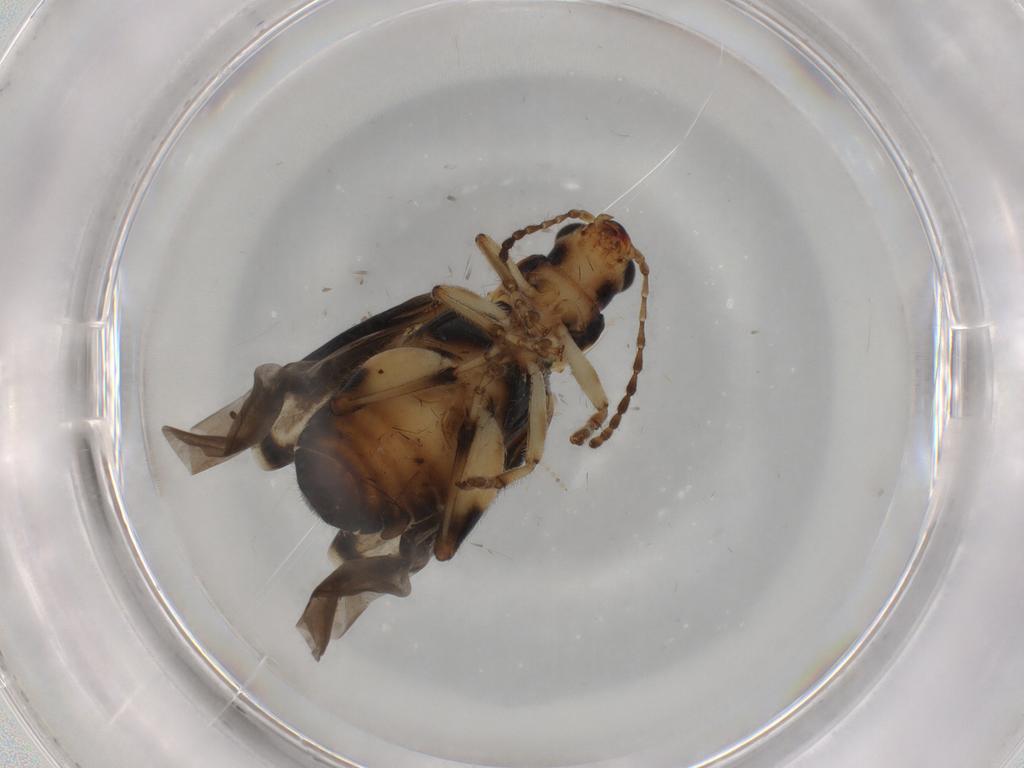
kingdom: Animalia
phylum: Arthropoda
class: Insecta
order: Coleoptera
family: Chrysomelidae
